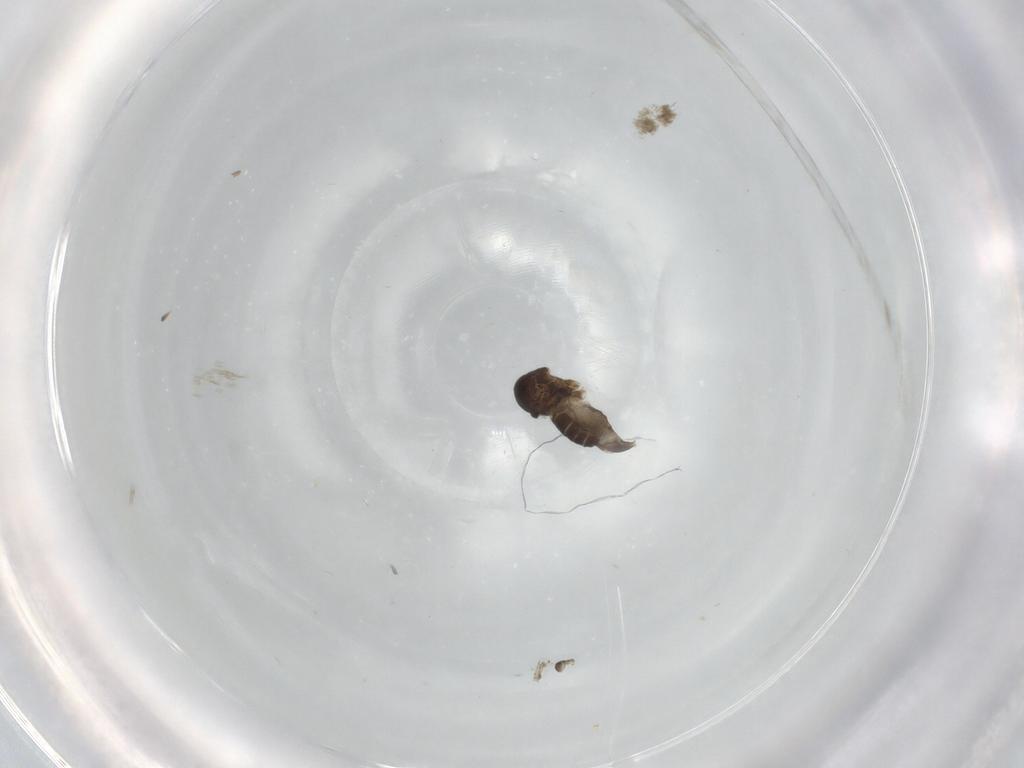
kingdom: Animalia
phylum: Arthropoda
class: Insecta
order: Diptera
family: Phoridae
